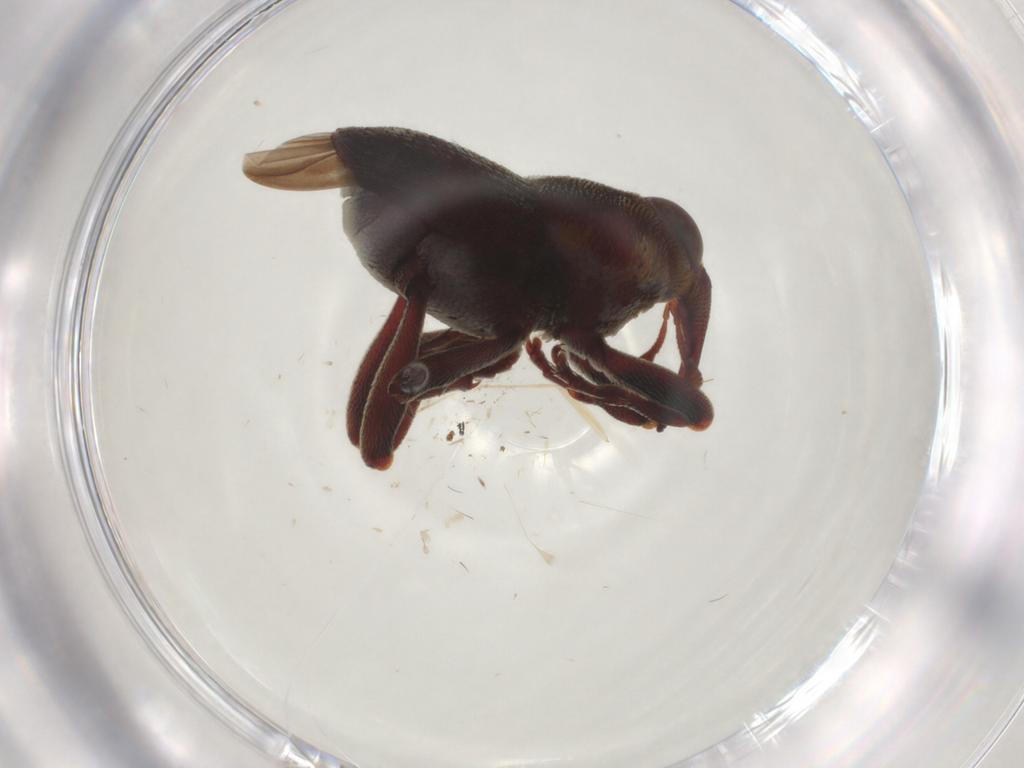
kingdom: Animalia
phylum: Arthropoda
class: Insecta
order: Coleoptera
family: Curculionidae
